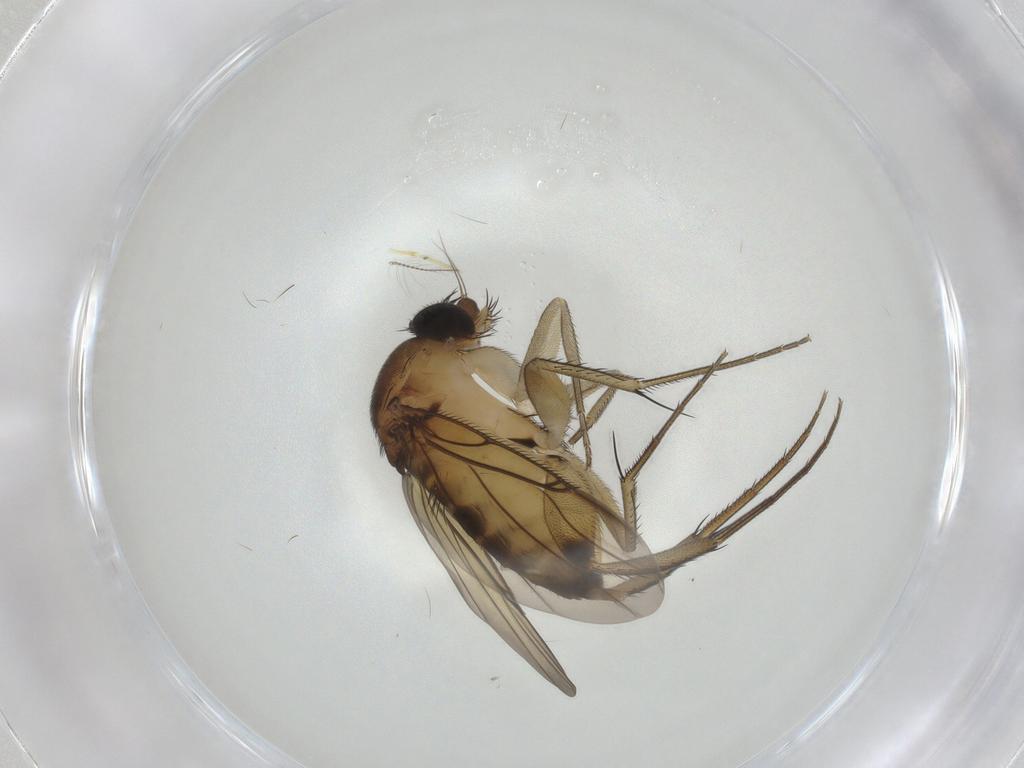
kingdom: Animalia
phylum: Arthropoda
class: Insecta
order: Diptera
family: Phoridae
